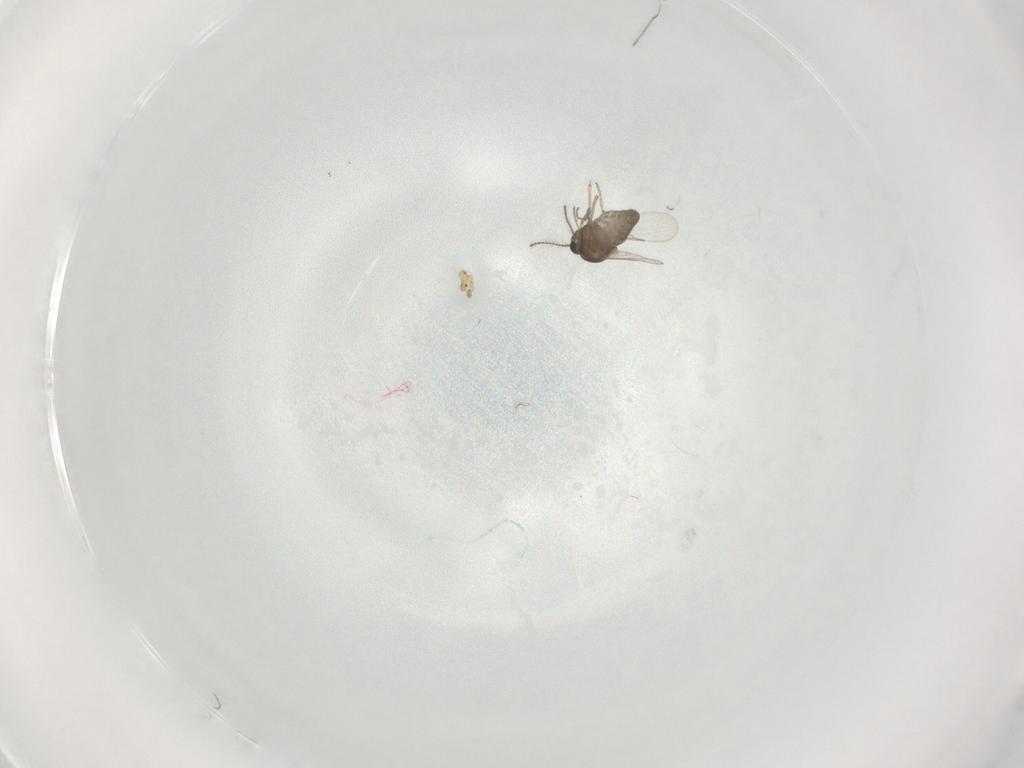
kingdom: Animalia
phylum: Arthropoda
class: Insecta
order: Diptera
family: Ceratopogonidae
